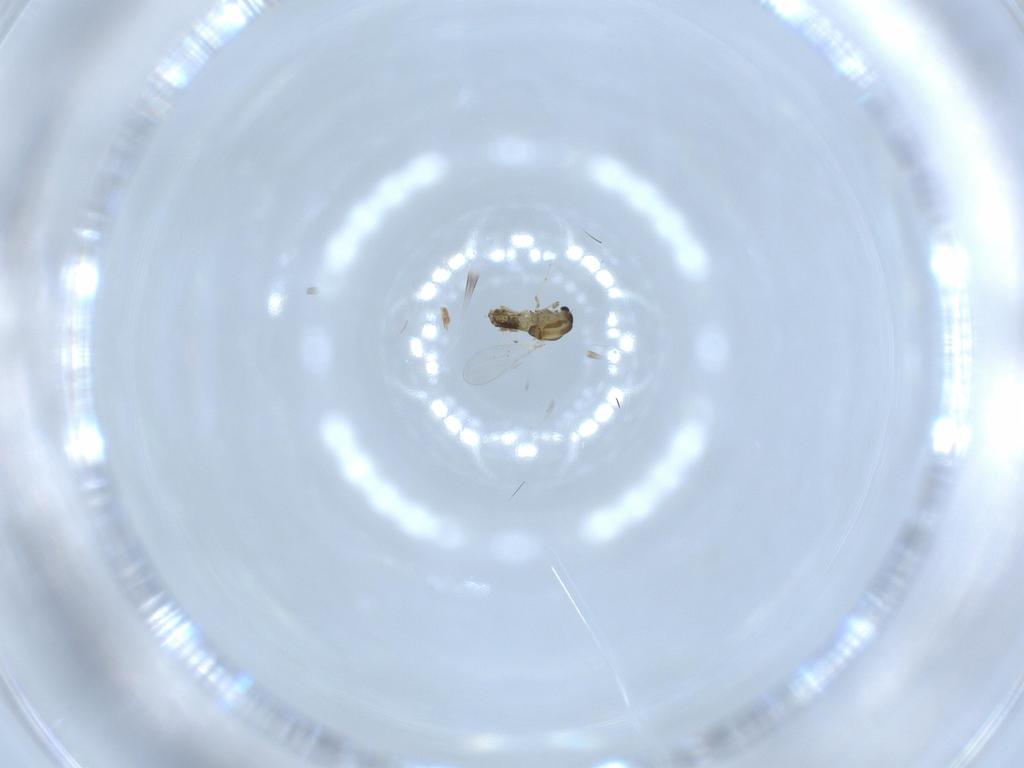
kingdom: Animalia
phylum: Arthropoda
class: Insecta
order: Diptera
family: Chironomidae
